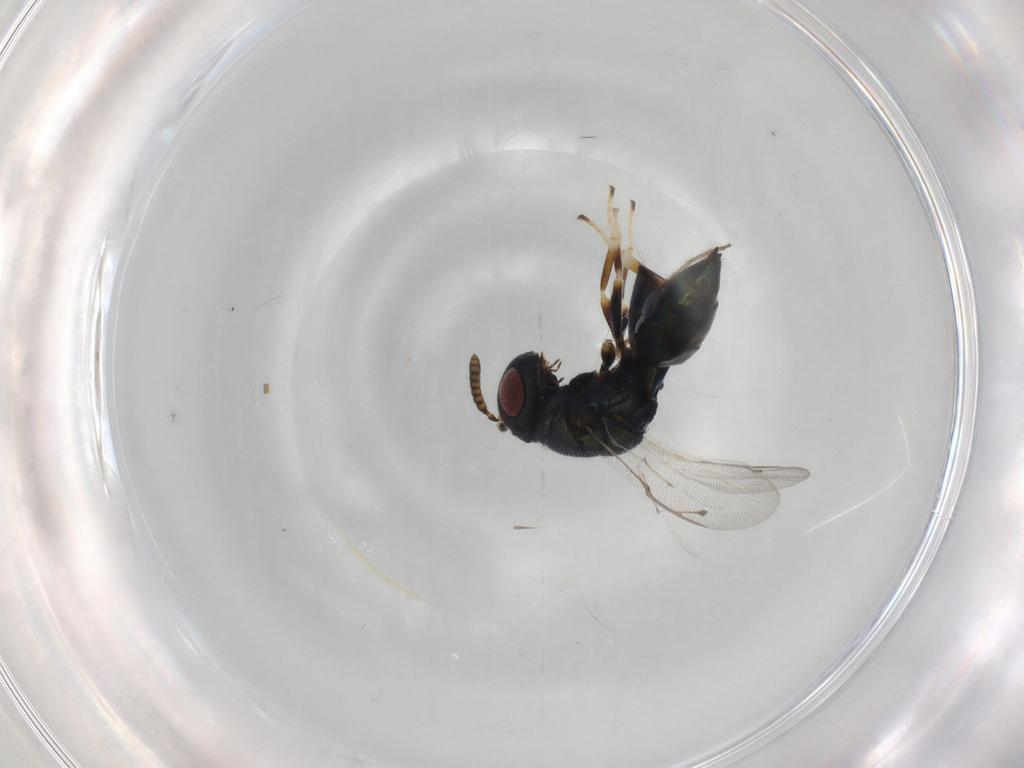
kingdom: Animalia
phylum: Arthropoda
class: Insecta
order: Hymenoptera
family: Pteromalidae
